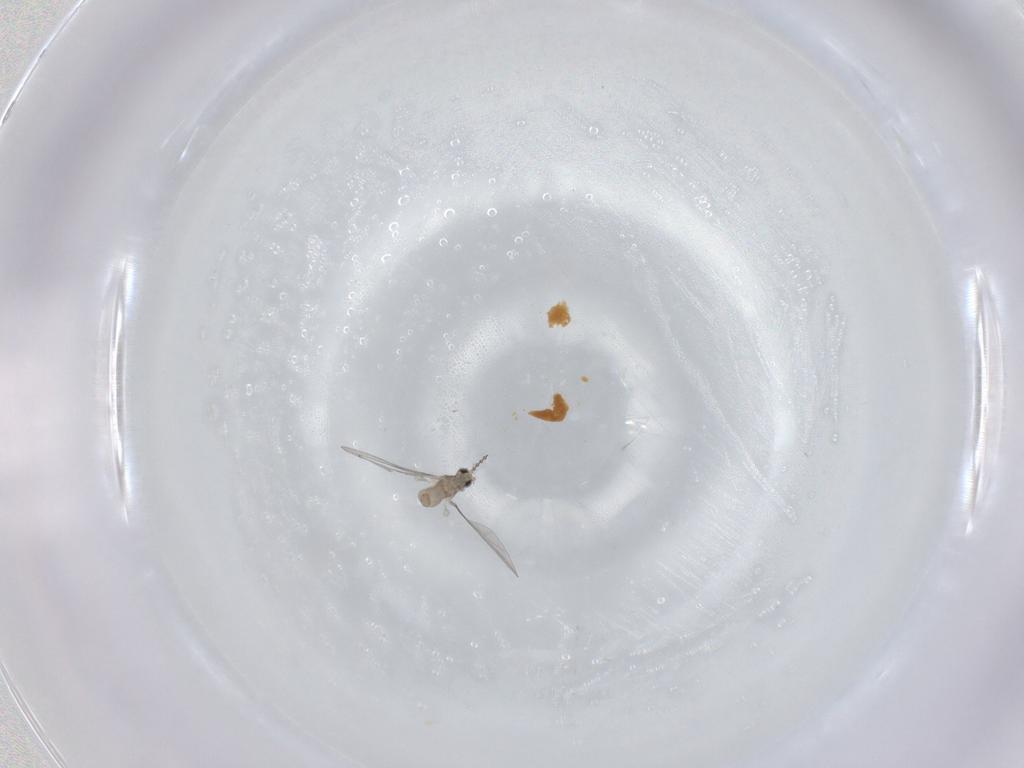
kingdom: Animalia
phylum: Arthropoda
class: Insecta
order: Diptera
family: Cecidomyiidae
